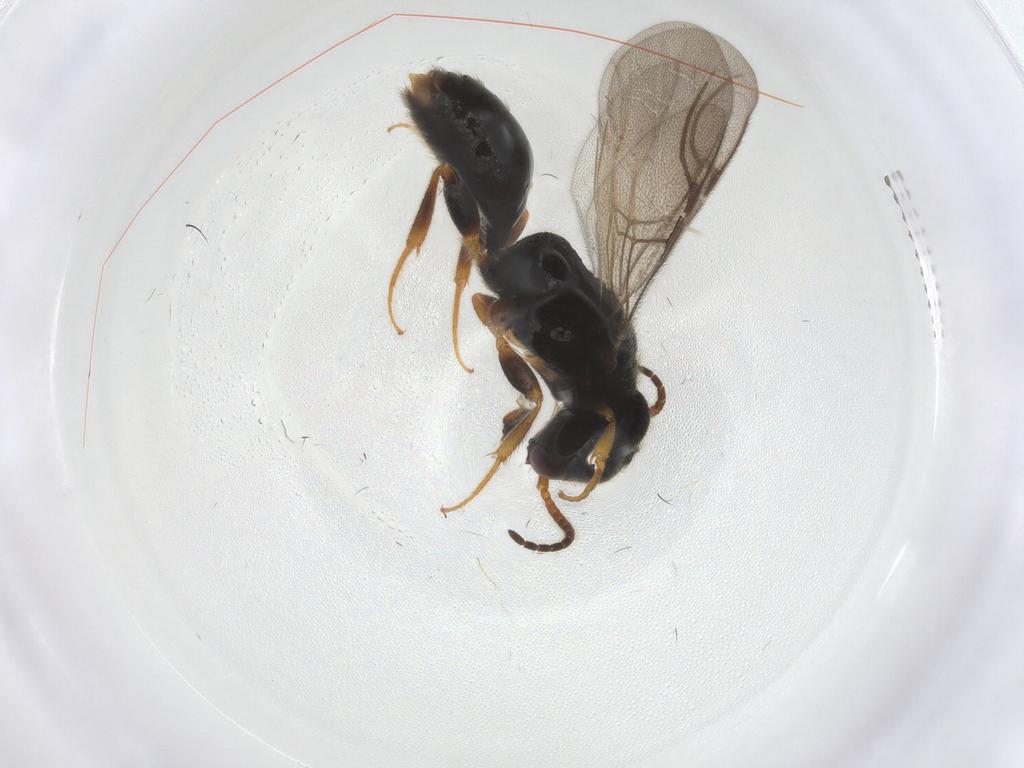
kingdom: Animalia
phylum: Arthropoda
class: Insecta
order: Hymenoptera
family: Bethylidae
